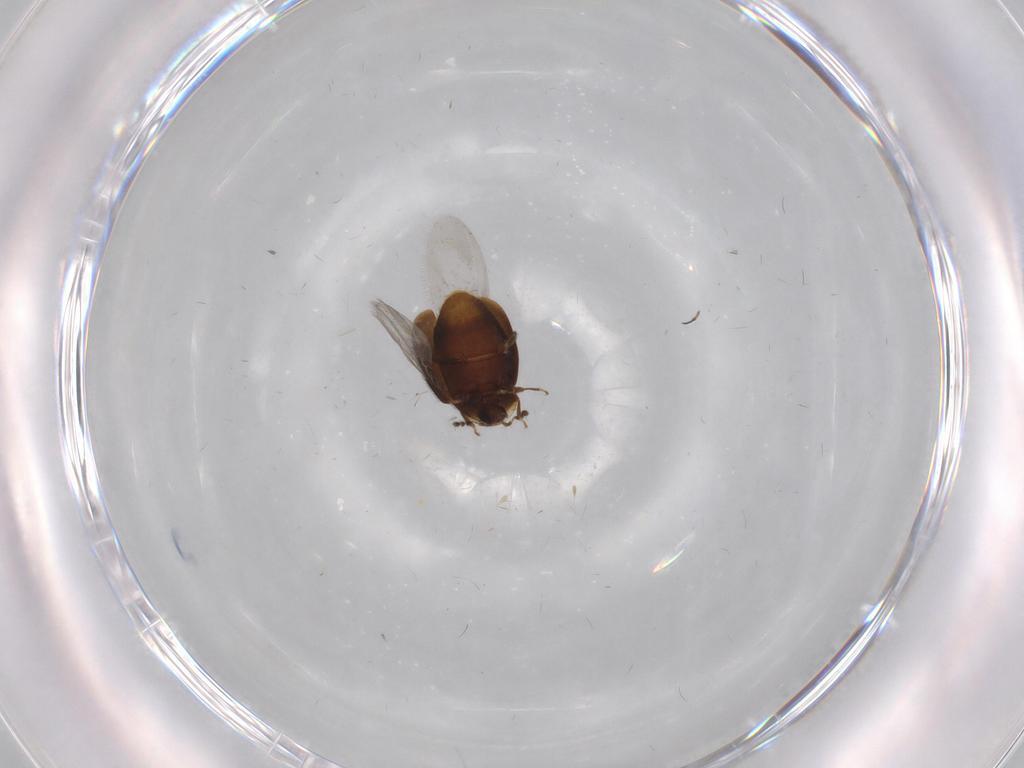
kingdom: Animalia
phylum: Arthropoda
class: Insecta
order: Coleoptera
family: Corylophidae
